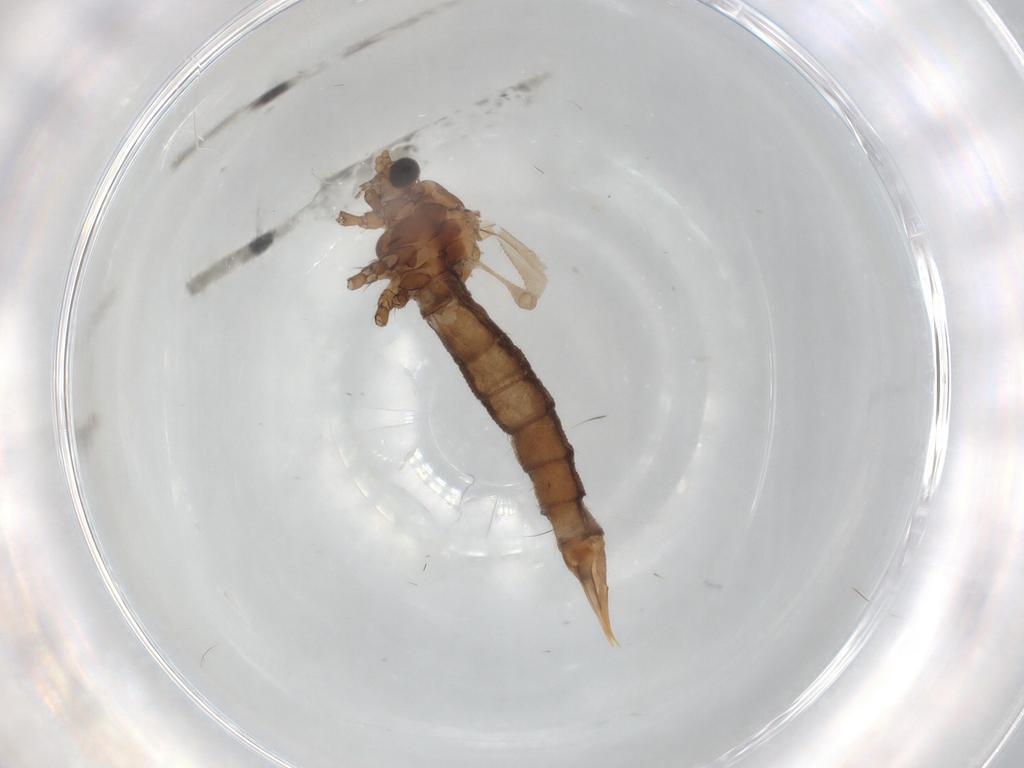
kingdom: Animalia
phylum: Arthropoda
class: Insecta
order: Diptera
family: Limoniidae
